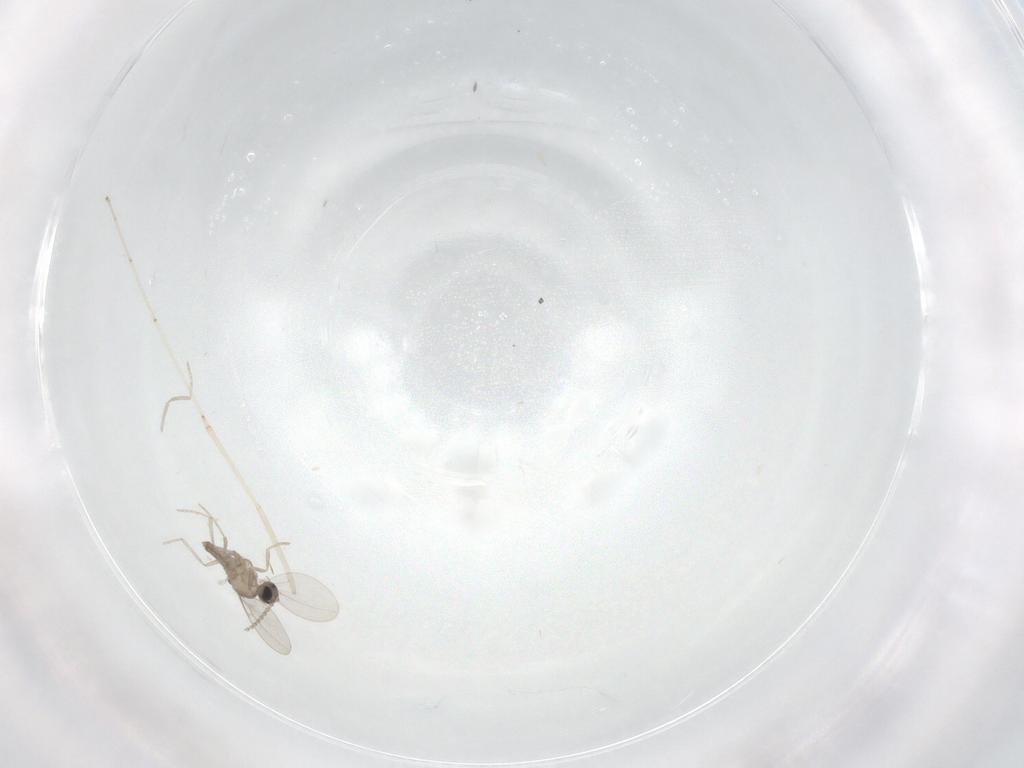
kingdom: Animalia
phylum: Arthropoda
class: Insecta
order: Diptera
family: Cecidomyiidae
